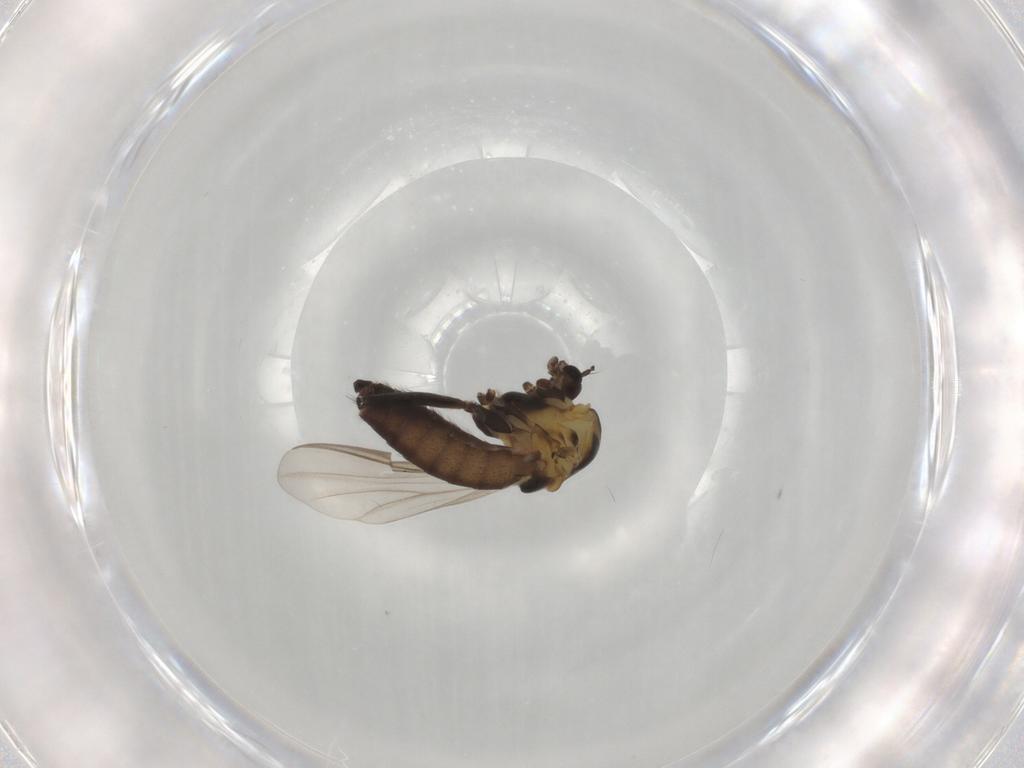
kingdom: Animalia
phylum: Arthropoda
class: Insecta
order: Diptera
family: Chironomidae
